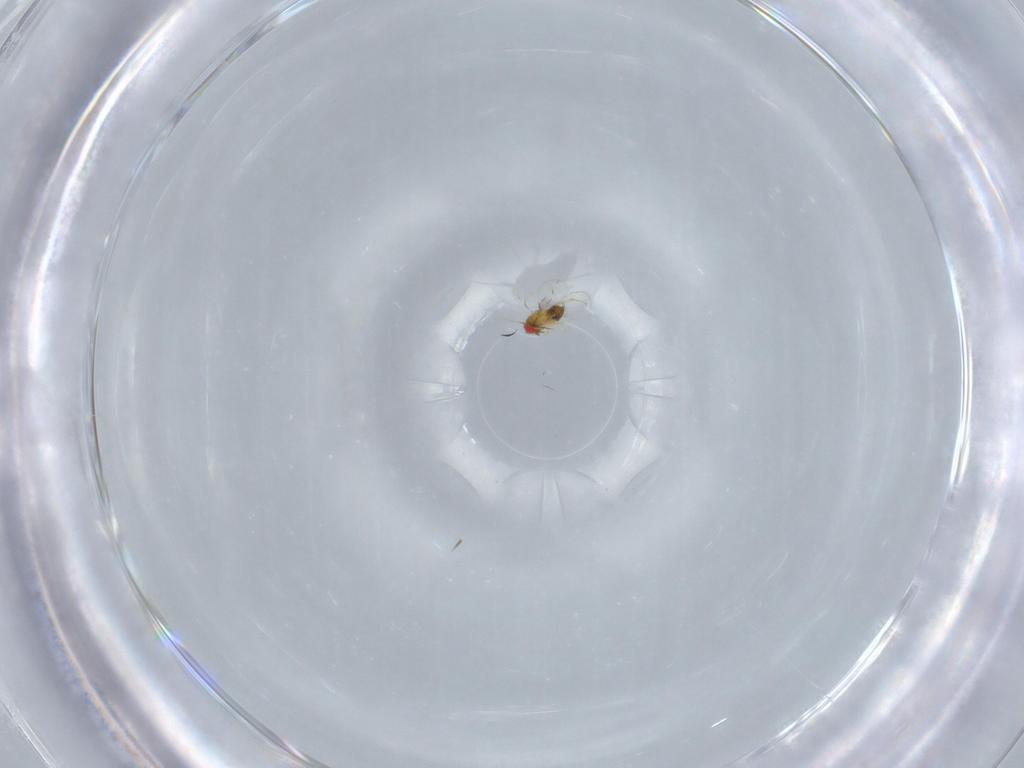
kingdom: Animalia
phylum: Arthropoda
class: Insecta
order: Hymenoptera
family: Trichogrammatidae
